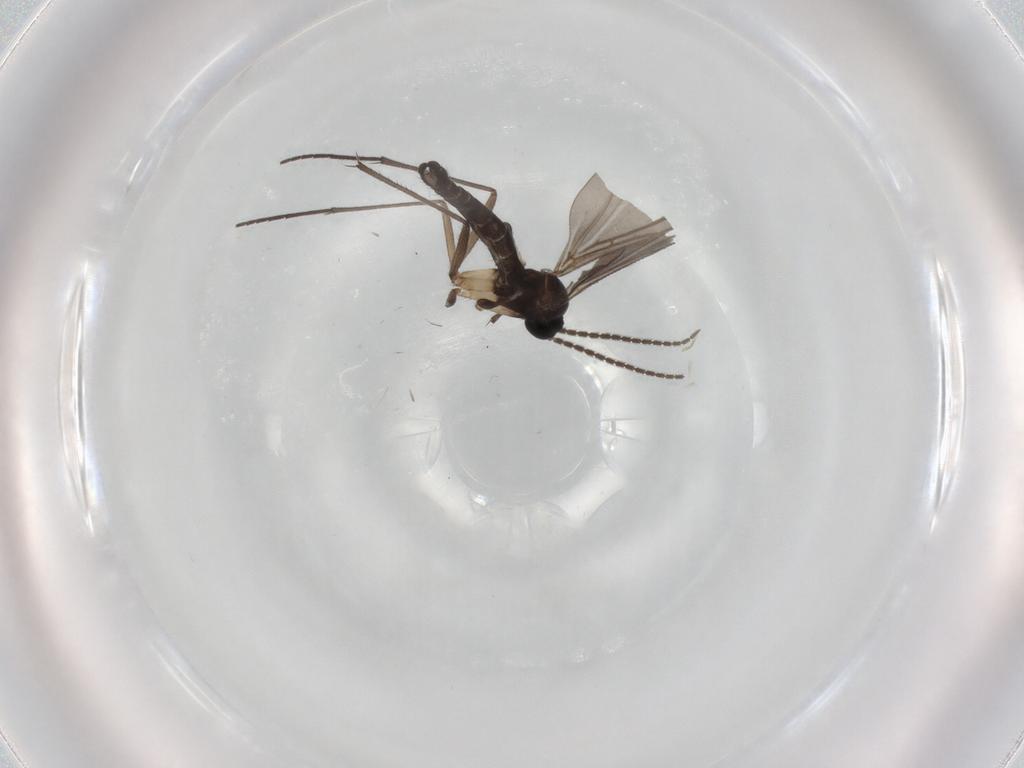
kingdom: Animalia
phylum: Arthropoda
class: Insecta
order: Diptera
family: Sciaridae
